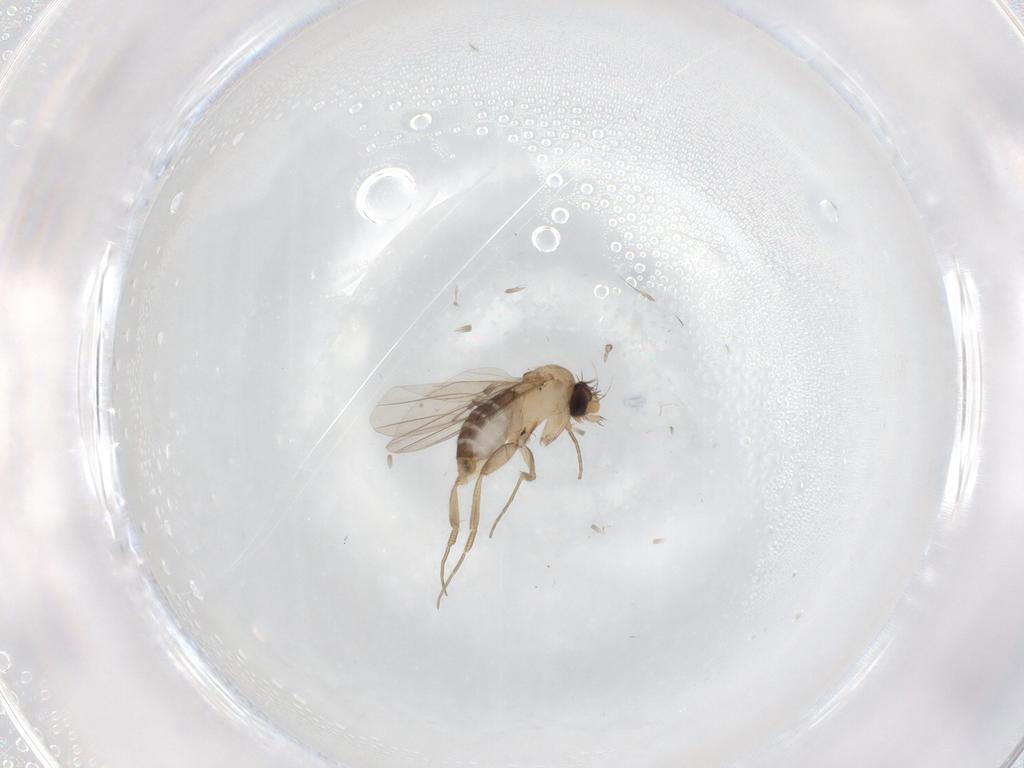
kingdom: Animalia
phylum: Arthropoda
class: Insecta
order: Diptera
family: Phoridae
